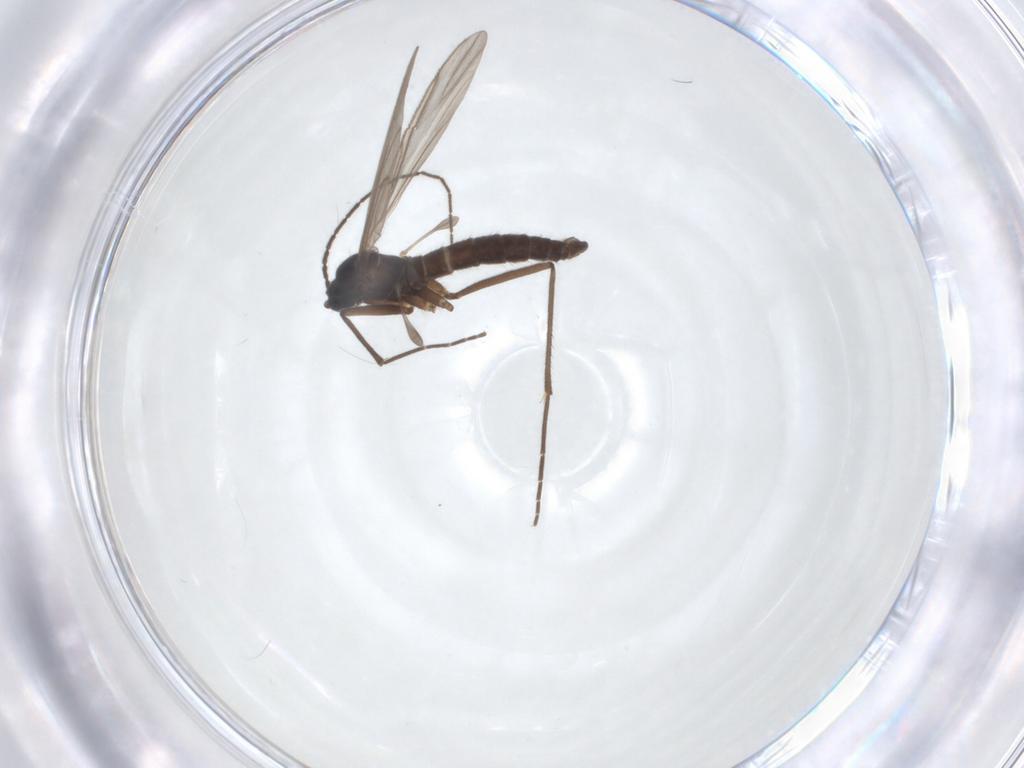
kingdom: Animalia
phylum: Arthropoda
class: Insecta
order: Diptera
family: Sciaridae
